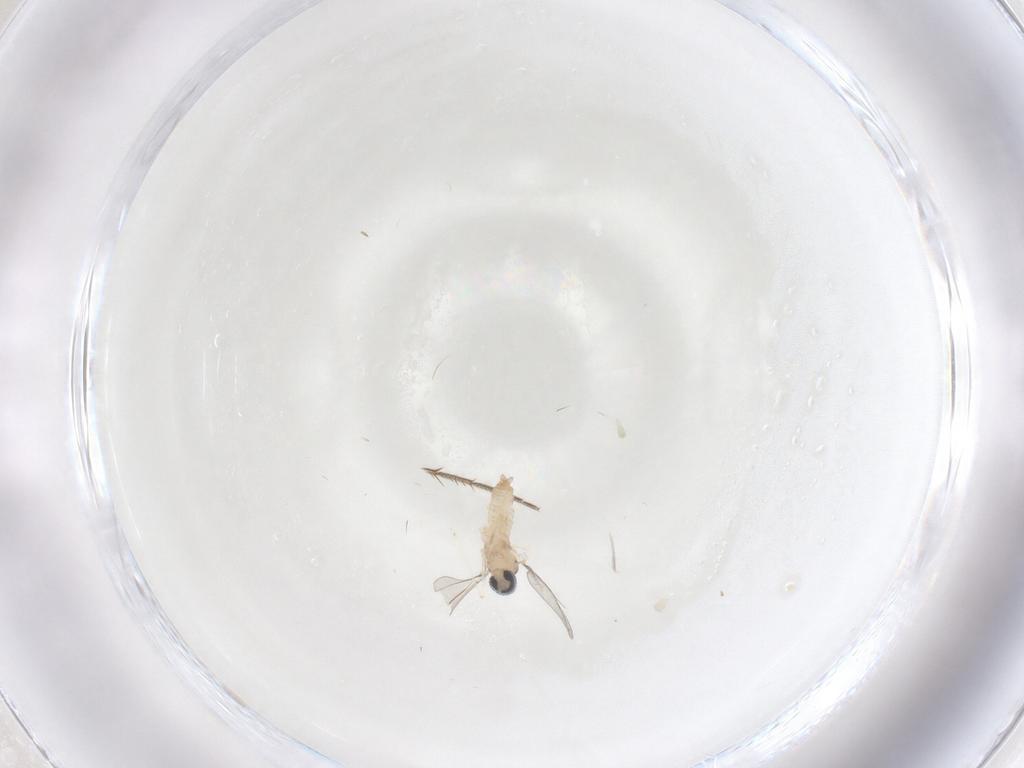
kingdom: Animalia
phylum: Arthropoda
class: Insecta
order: Diptera
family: Cecidomyiidae
